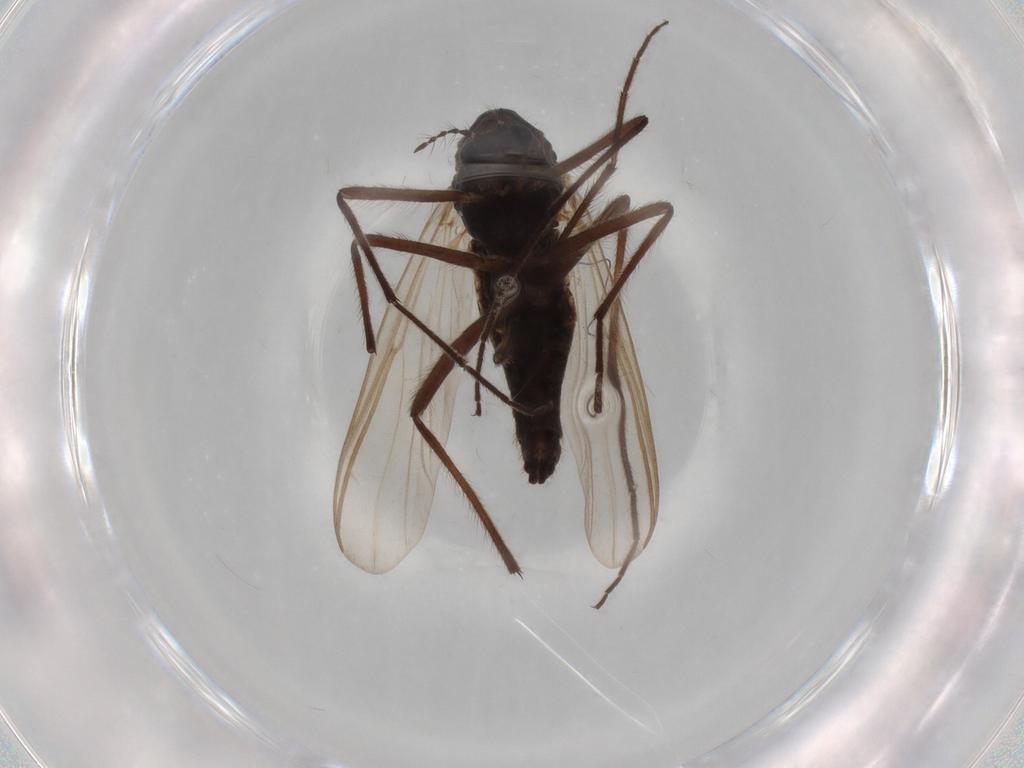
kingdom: Animalia
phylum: Arthropoda
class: Insecta
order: Diptera
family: Drosophilidae
